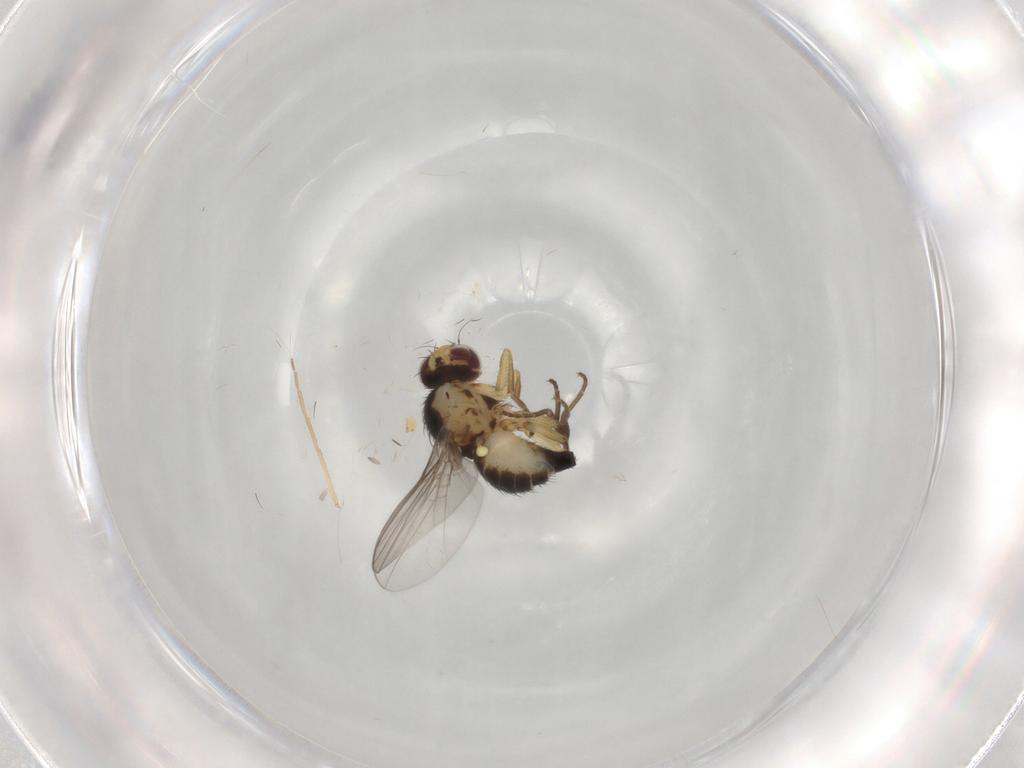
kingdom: Animalia
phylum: Arthropoda
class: Insecta
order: Diptera
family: Agromyzidae
